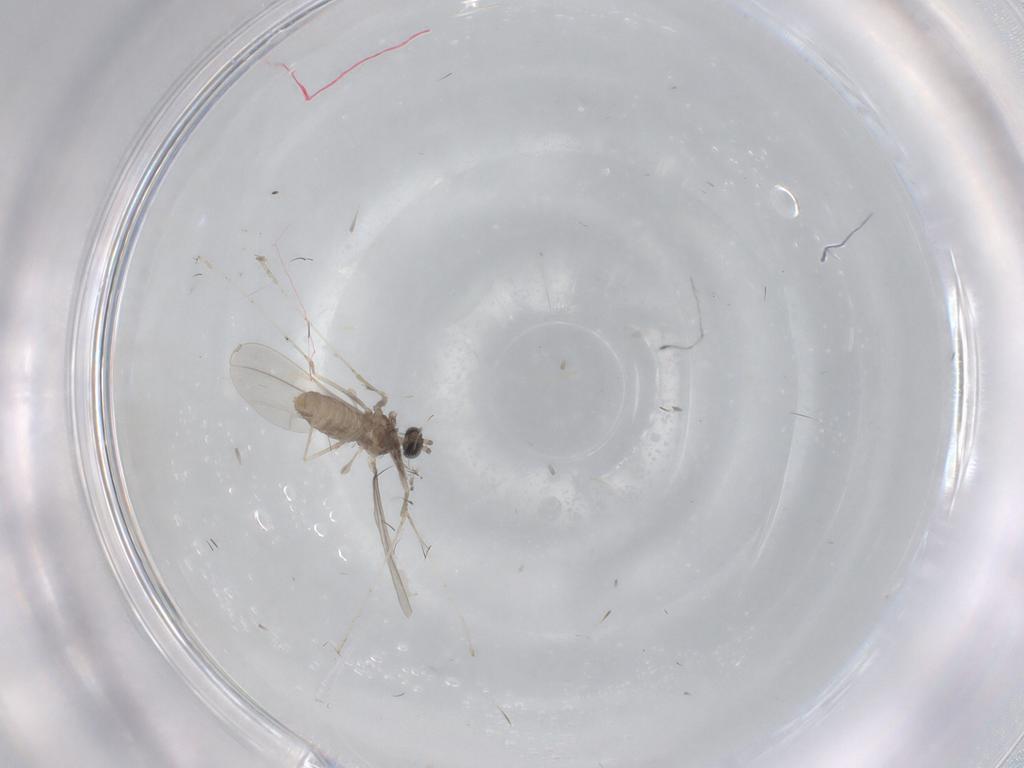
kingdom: Animalia
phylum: Arthropoda
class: Insecta
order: Diptera
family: Cecidomyiidae
